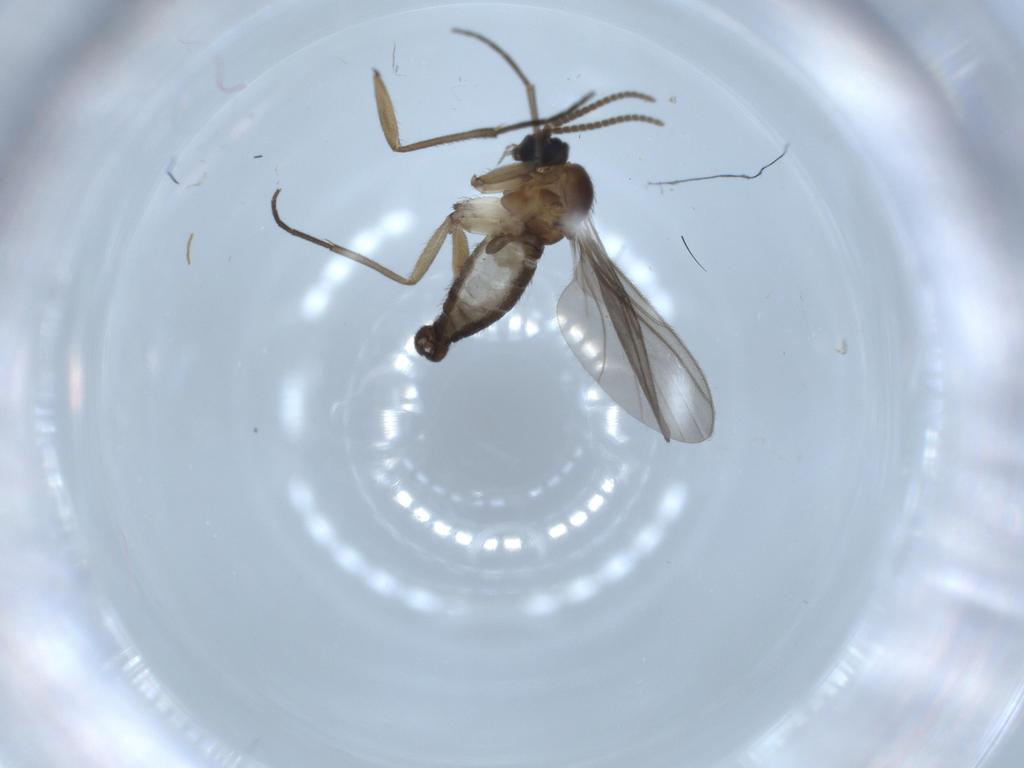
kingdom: Animalia
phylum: Arthropoda
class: Insecta
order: Diptera
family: Sciaridae
